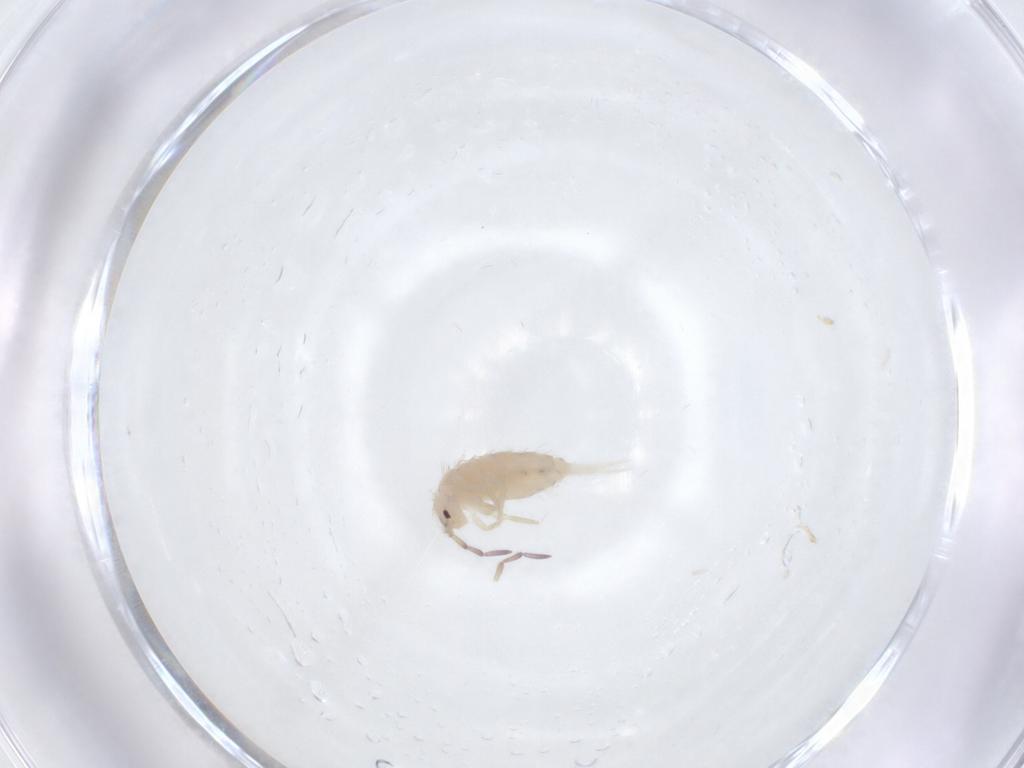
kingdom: Animalia
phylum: Arthropoda
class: Collembola
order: Entomobryomorpha
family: Entomobryidae
